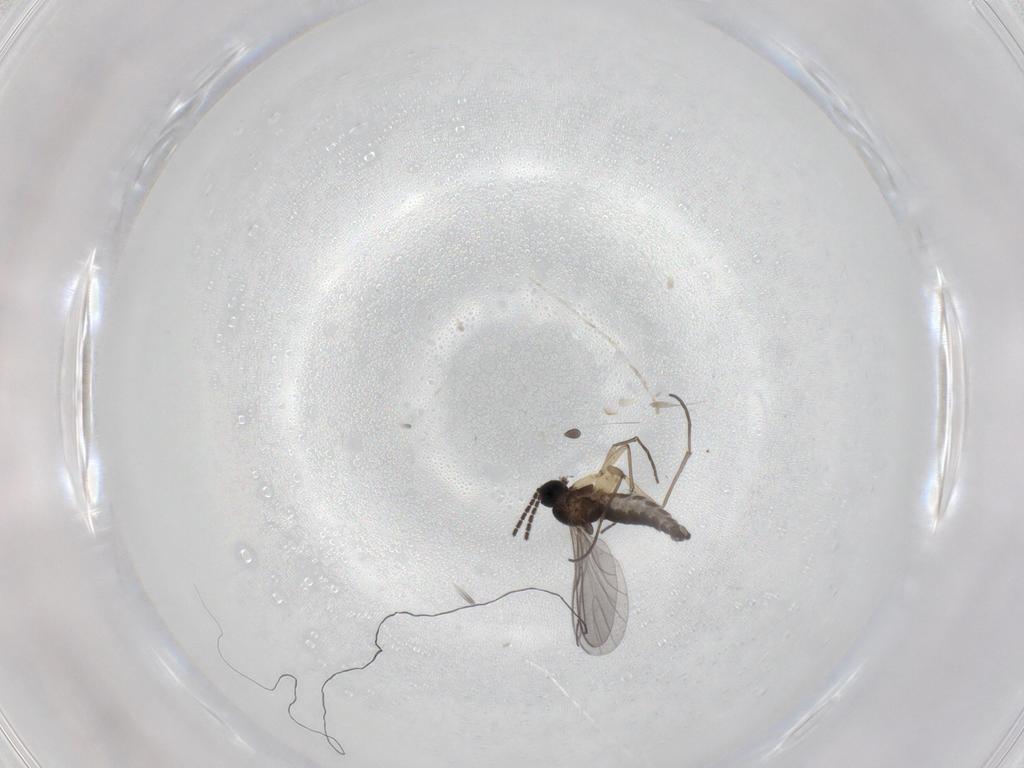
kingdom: Animalia
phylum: Arthropoda
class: Insecta
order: Diptera
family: Sciaridae
